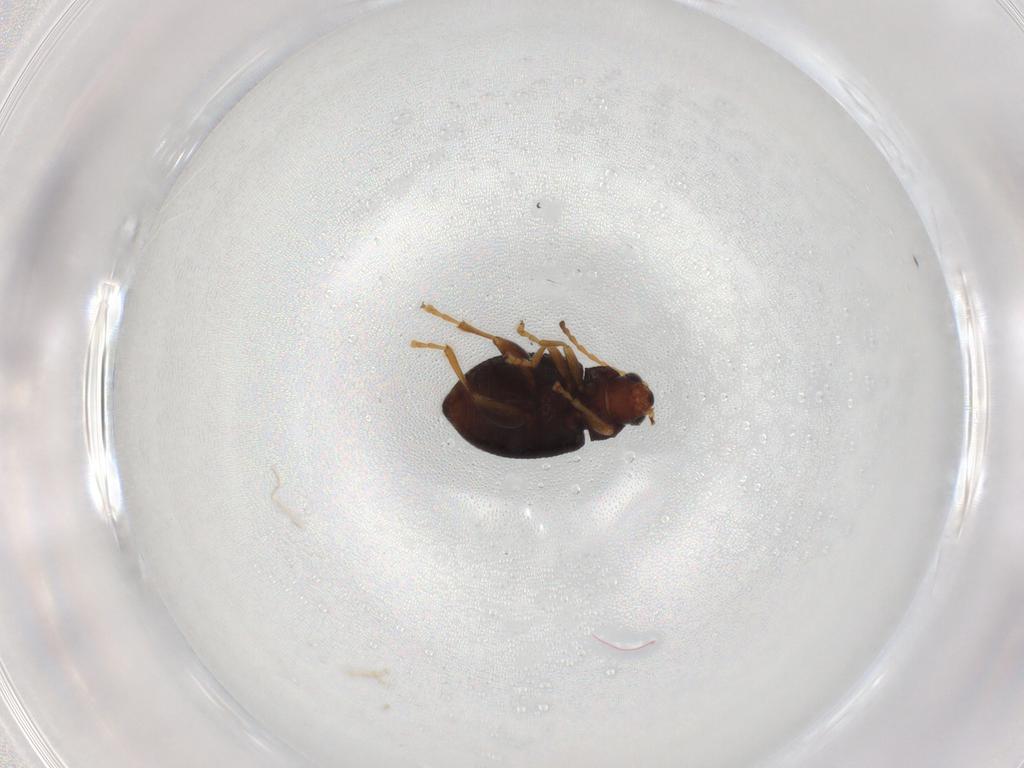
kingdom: Animalia
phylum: Arthropoda
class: Insecta
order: Coleoptera
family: Chrysomelidae
